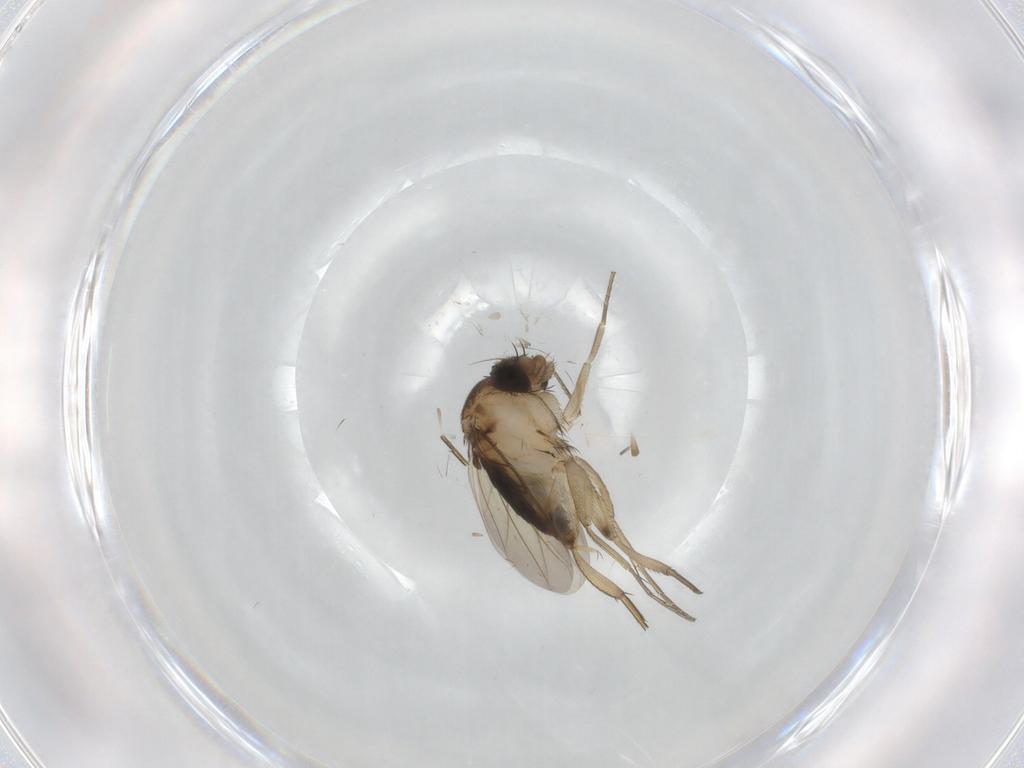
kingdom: Animalia
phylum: Arthropoda
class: Insecta
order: Diptera
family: Phoridae
